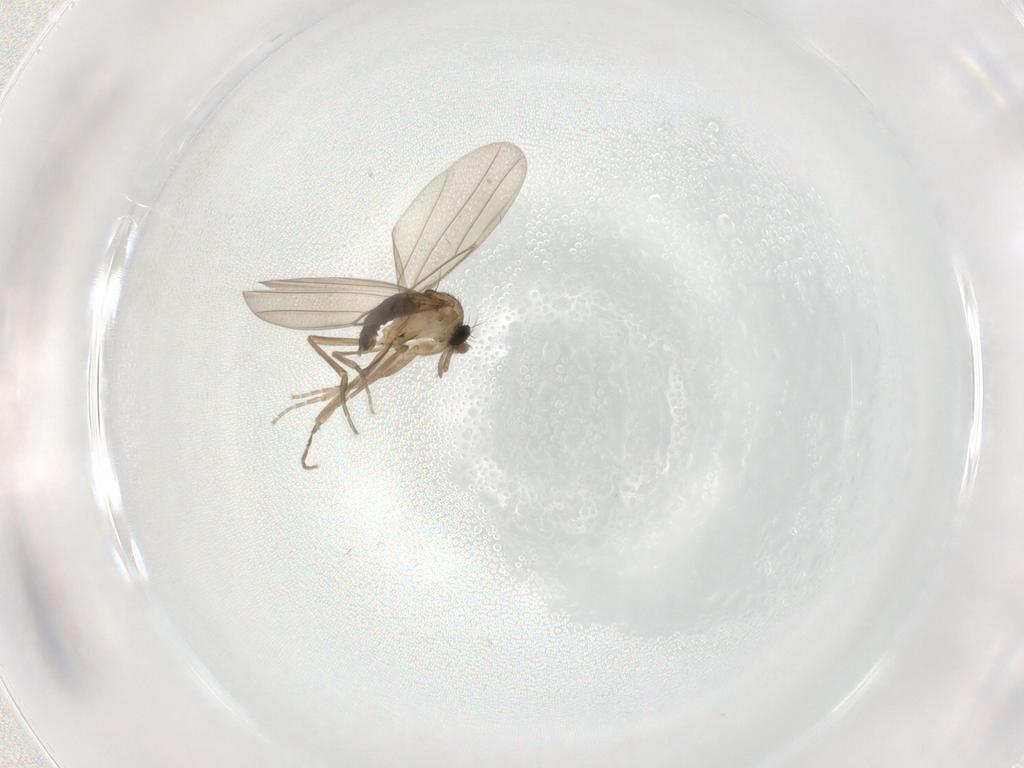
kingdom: Animalia
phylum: Arthropoda
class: Insecta
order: Diptera
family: Phoridae
